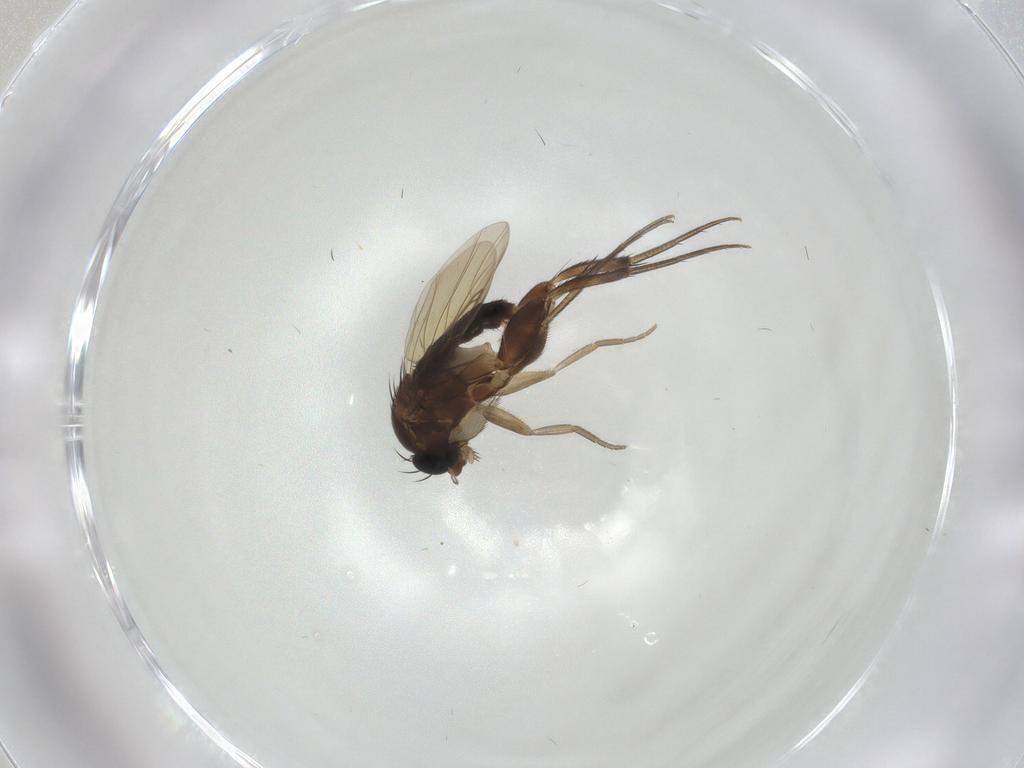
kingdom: Animalia
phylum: Arthropoda
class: Insecta
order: Diptera
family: Phoridae
